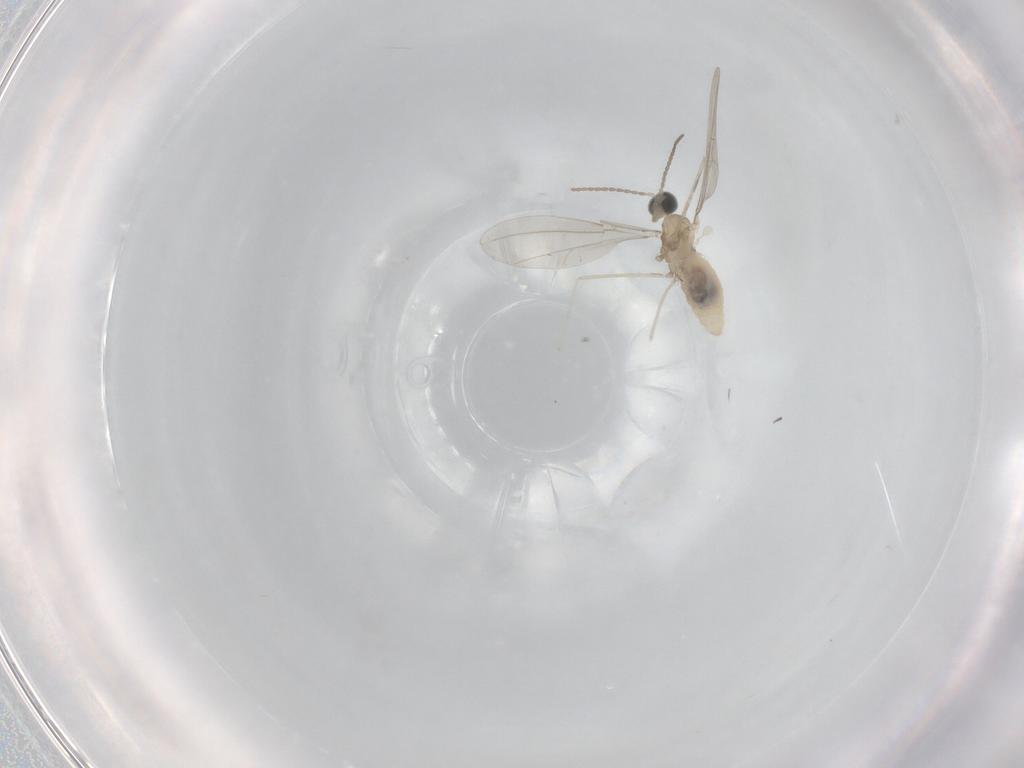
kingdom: Animalia
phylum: Arthropoda
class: Insecta
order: Diptera
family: Cecidomyiidae
